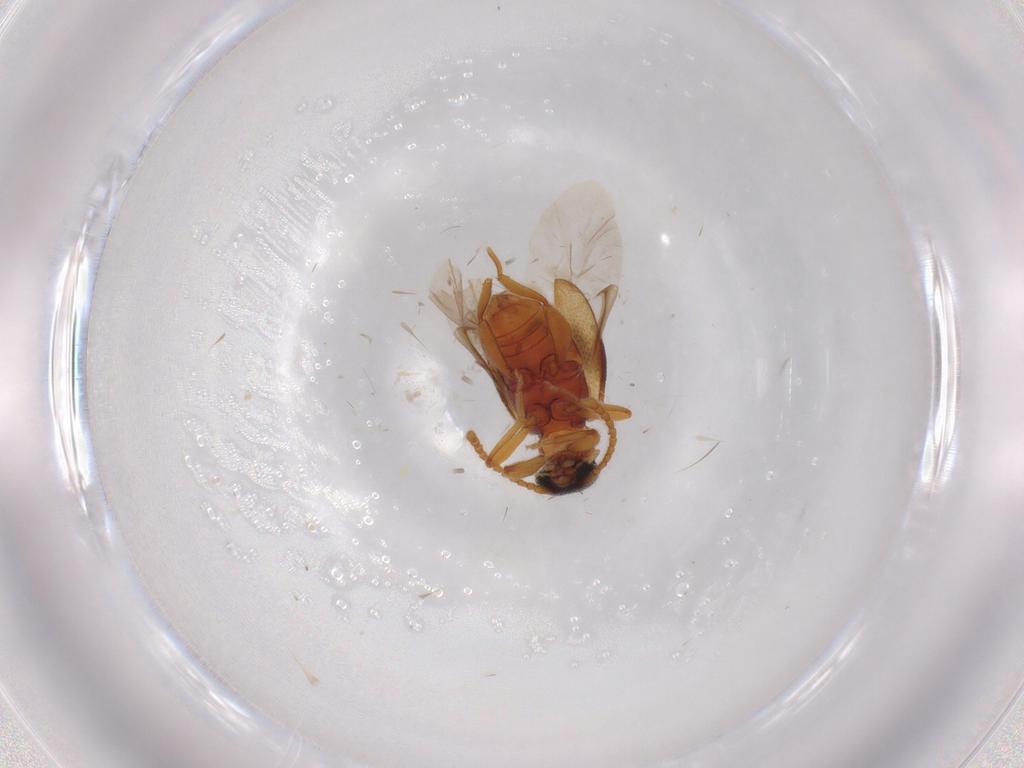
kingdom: Animalia
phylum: Arthropoda
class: Insecta
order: Coleoptera
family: Aderidae
